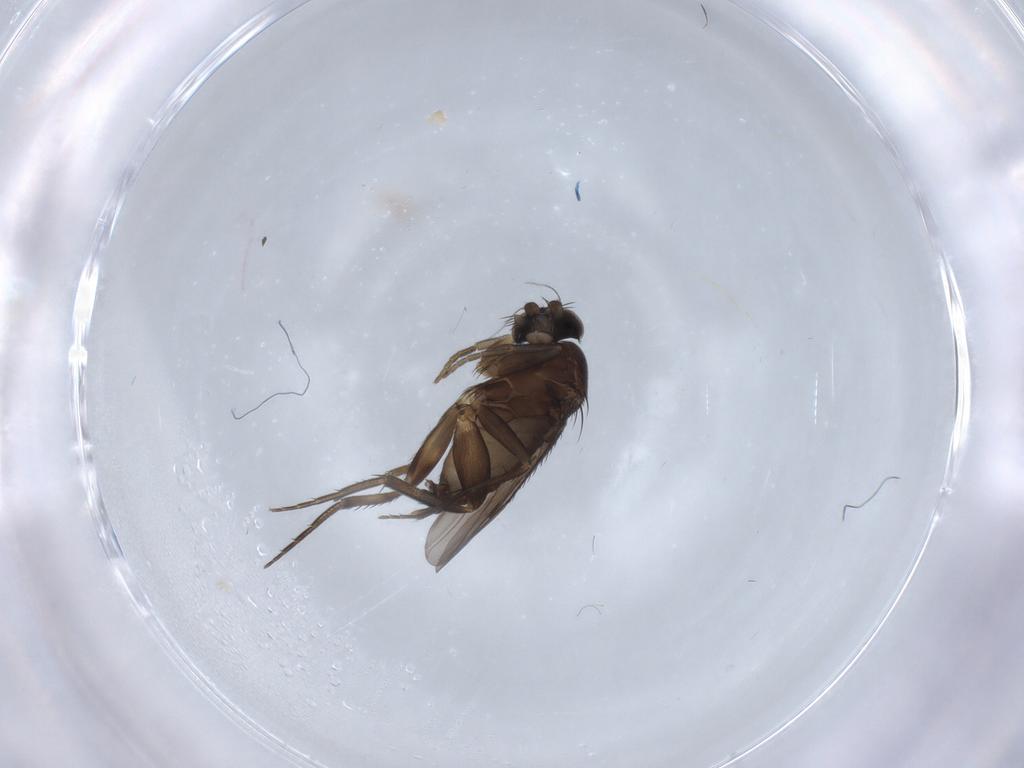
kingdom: Animalia
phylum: Arthropoda
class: Insecta
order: Diptera
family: Phoridae
